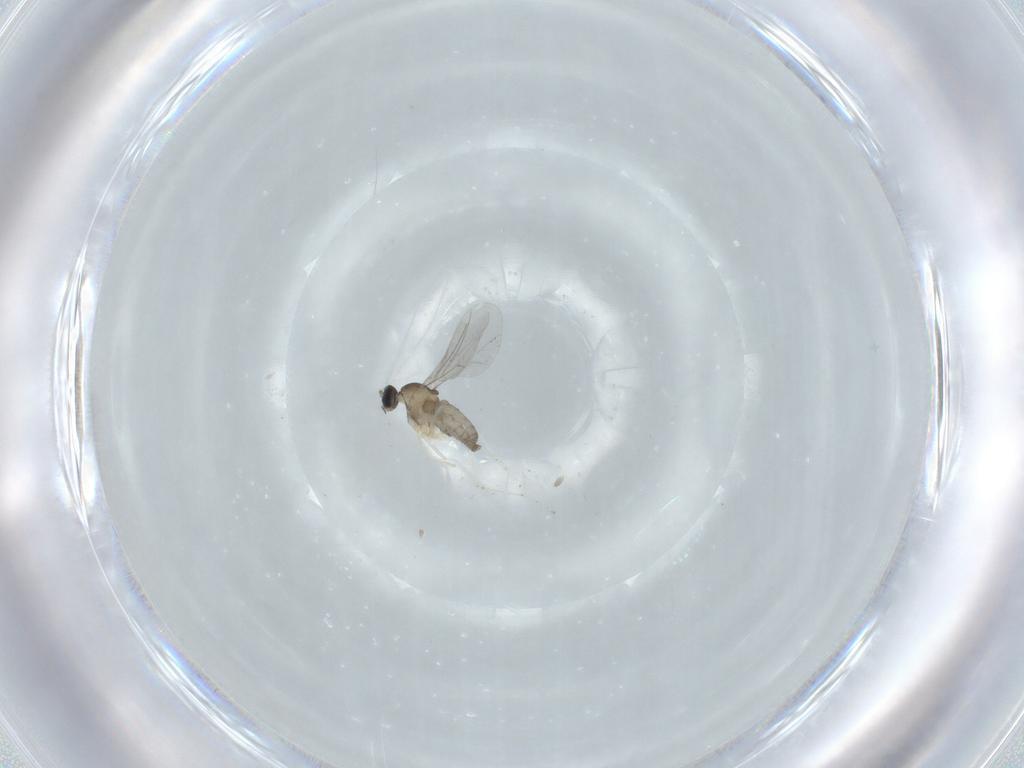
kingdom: Animalia
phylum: Arthropoda
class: Insecta
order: Diptera
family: Cecidomyiidae
